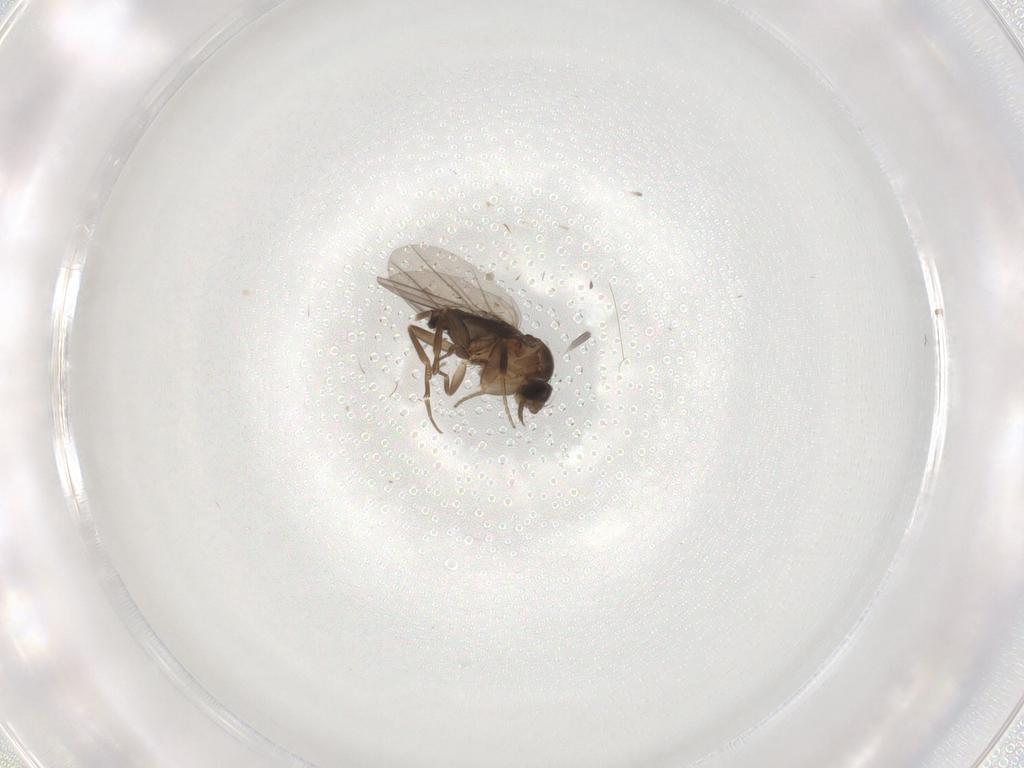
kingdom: Animalia
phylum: Arthropoda
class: Insecta
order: Diptera
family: Phoridae
